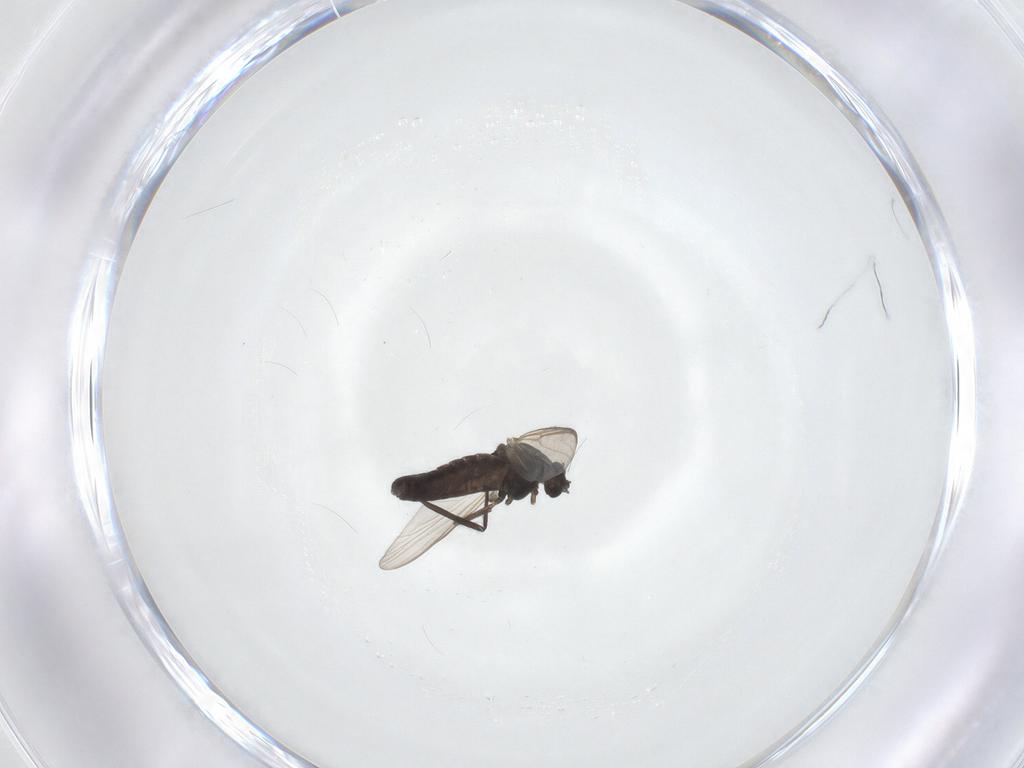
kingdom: Animalia
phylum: Arthropoda
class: Insecta
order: Diptera
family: Chironomidae
